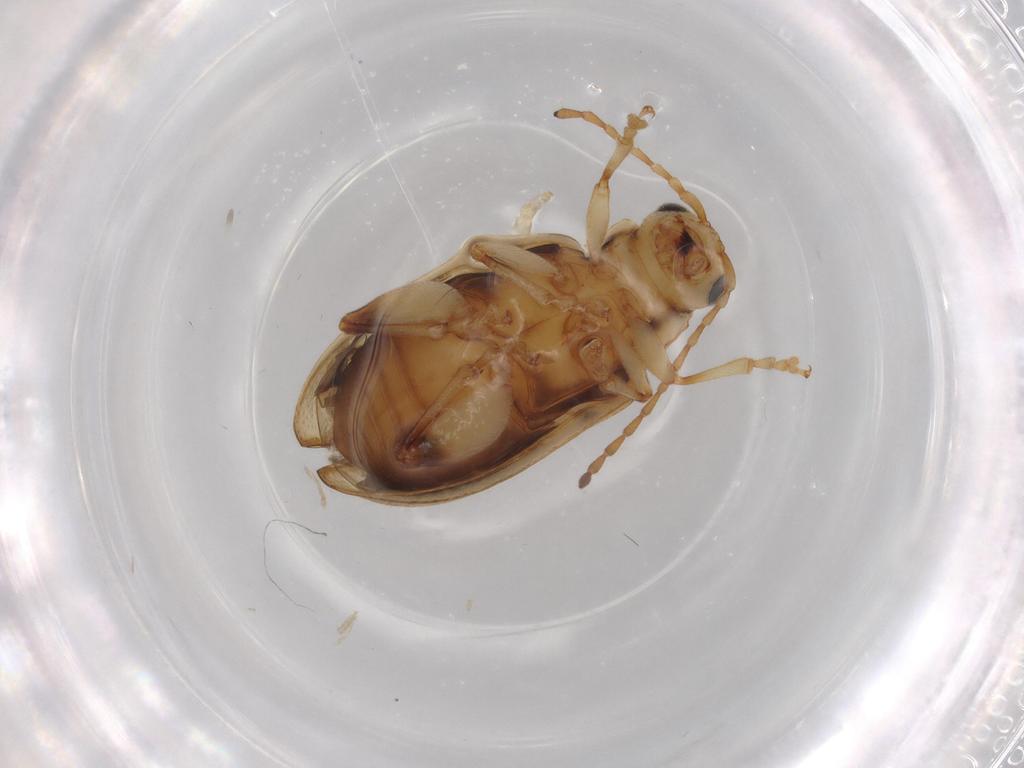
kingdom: Animalia
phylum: Arthropoda
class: Insecta
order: Coleoptera
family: Chrysomelidae
